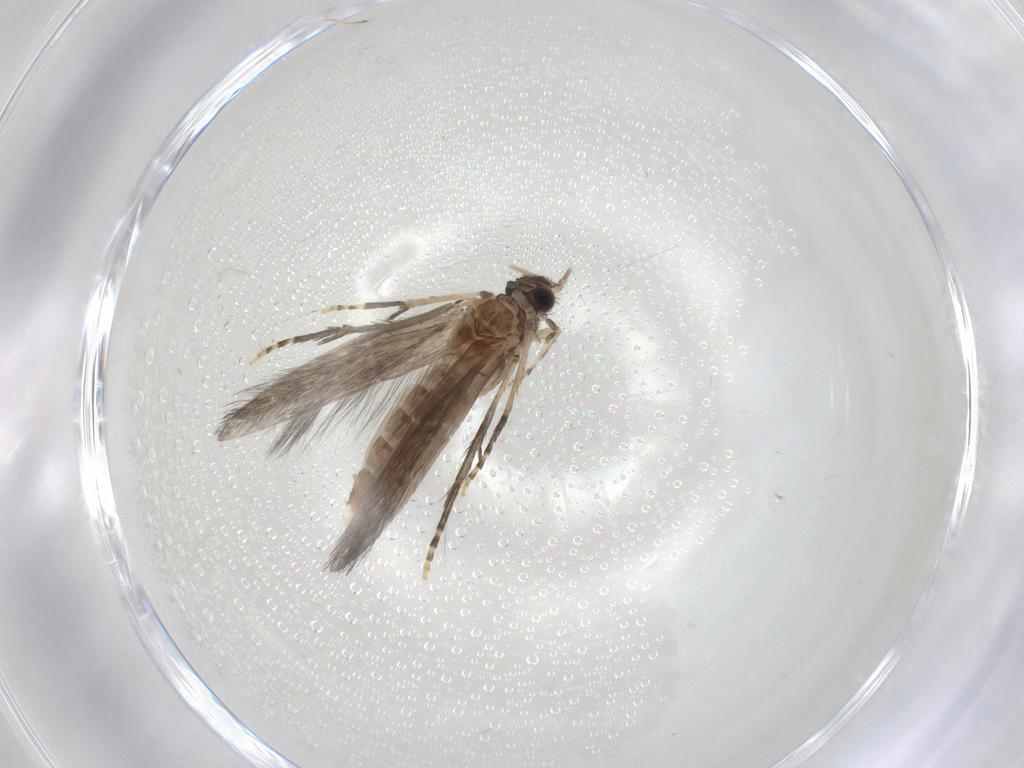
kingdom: Animalia
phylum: Arthropoda
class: Insecta
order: Trichoptera
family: Hydroptilidae
